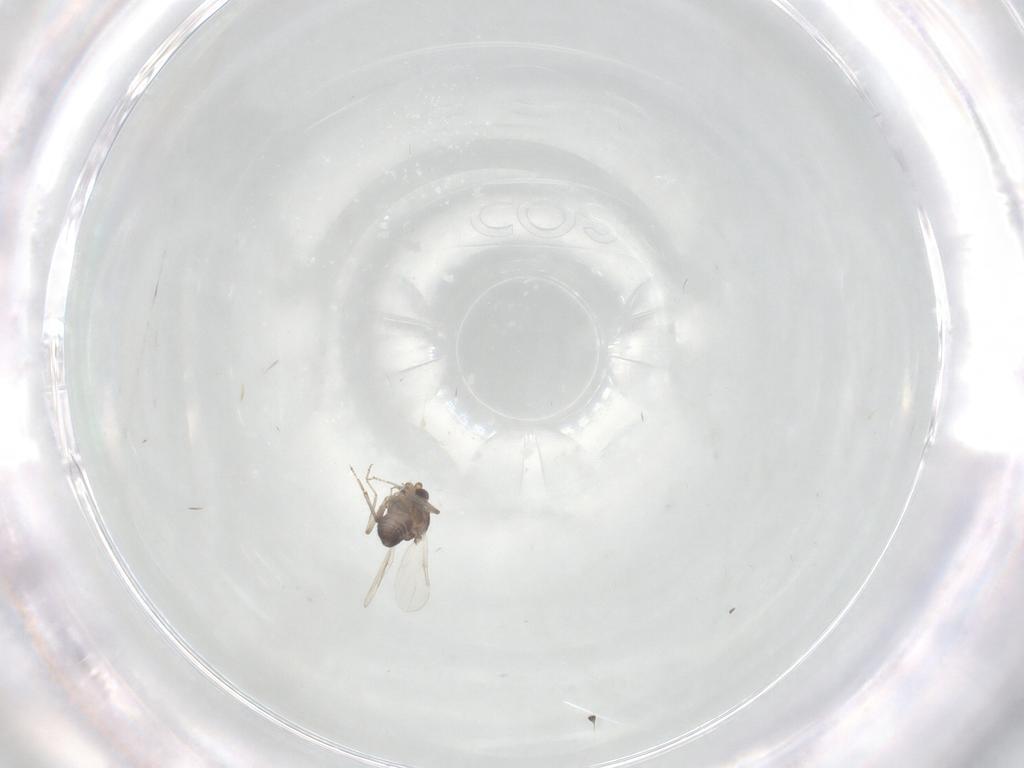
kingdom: Animalia
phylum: Arthropoda
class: Insecta
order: Diptera
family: Ceratopogonidae
